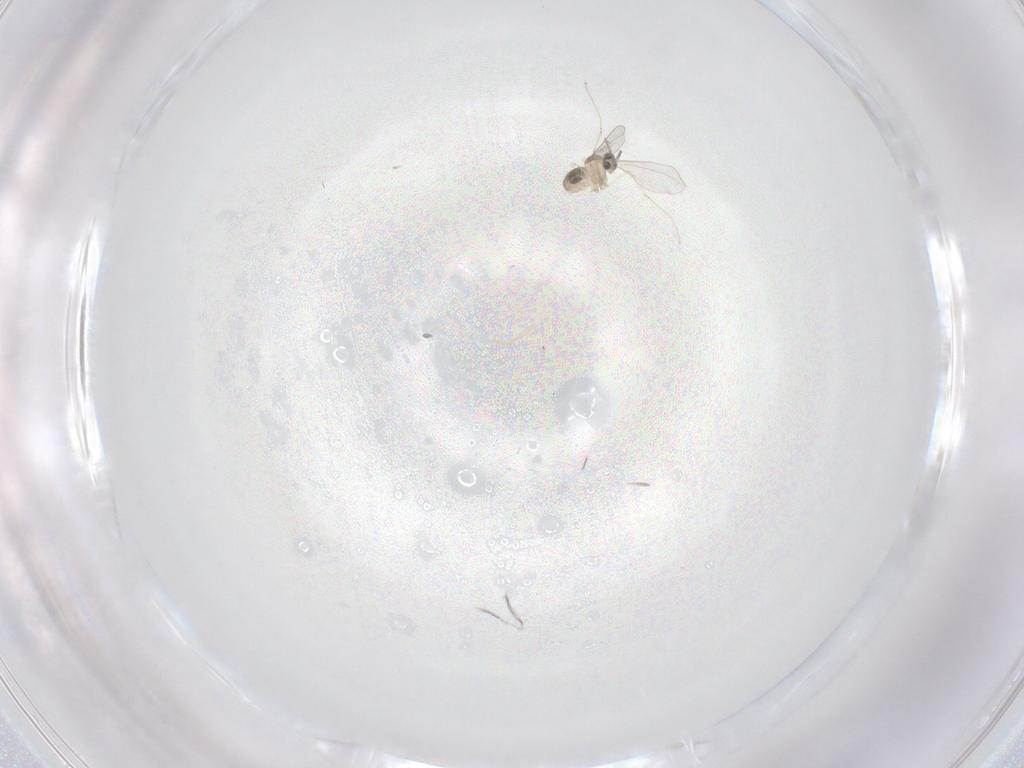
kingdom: Animalia
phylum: Arthropoda
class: Insecta
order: Diptera
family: Cecidomyiidae
